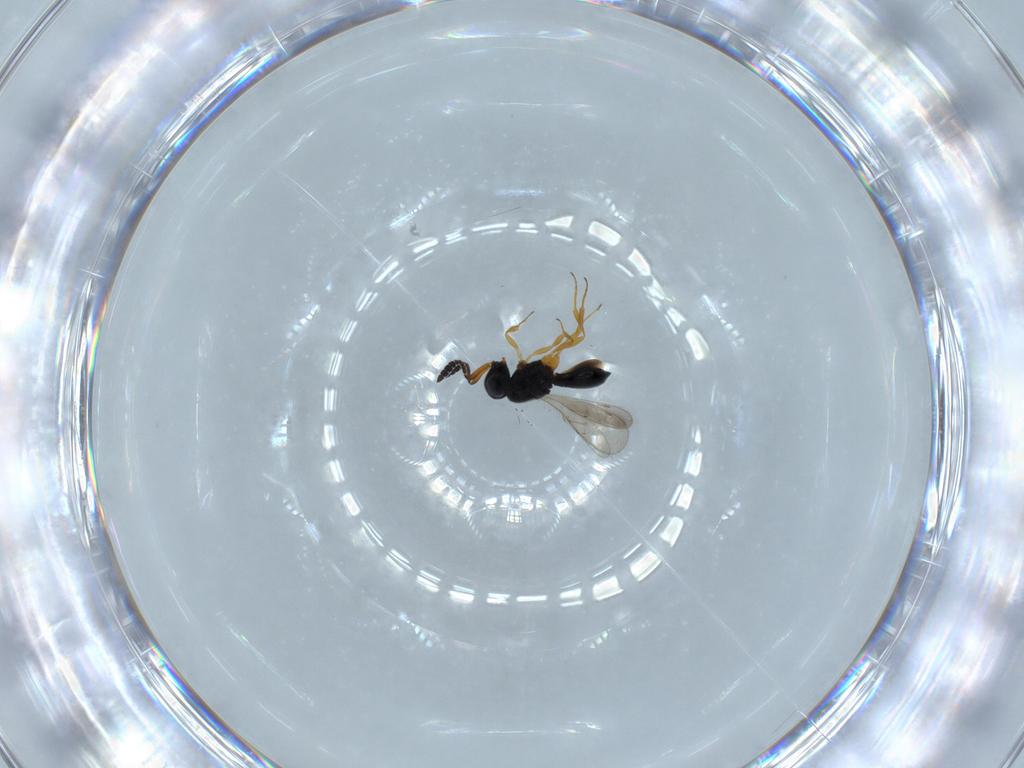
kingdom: Animalia
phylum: Arthropoda
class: Insecta
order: Hymenoptera
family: Scelionidae
